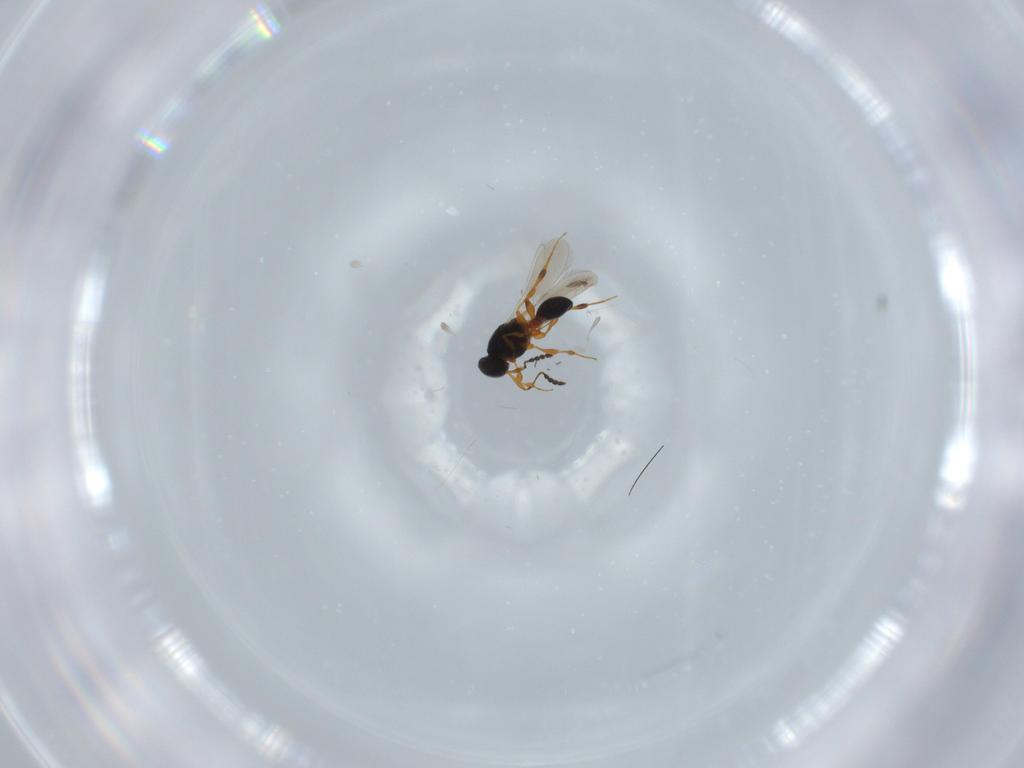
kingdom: Animalia
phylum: Arthropoda
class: Insecta
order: Hymenoptera
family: Platygastridae
